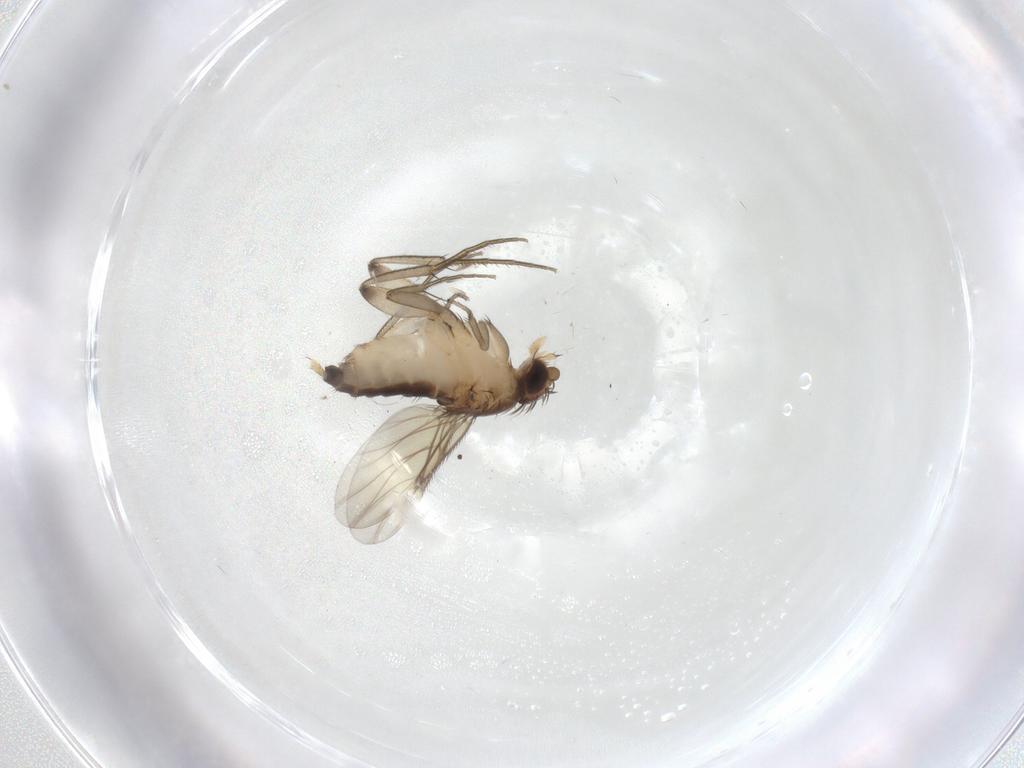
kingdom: Animalia
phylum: Arthropoda
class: Insecta
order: Diptera
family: Phoridae
